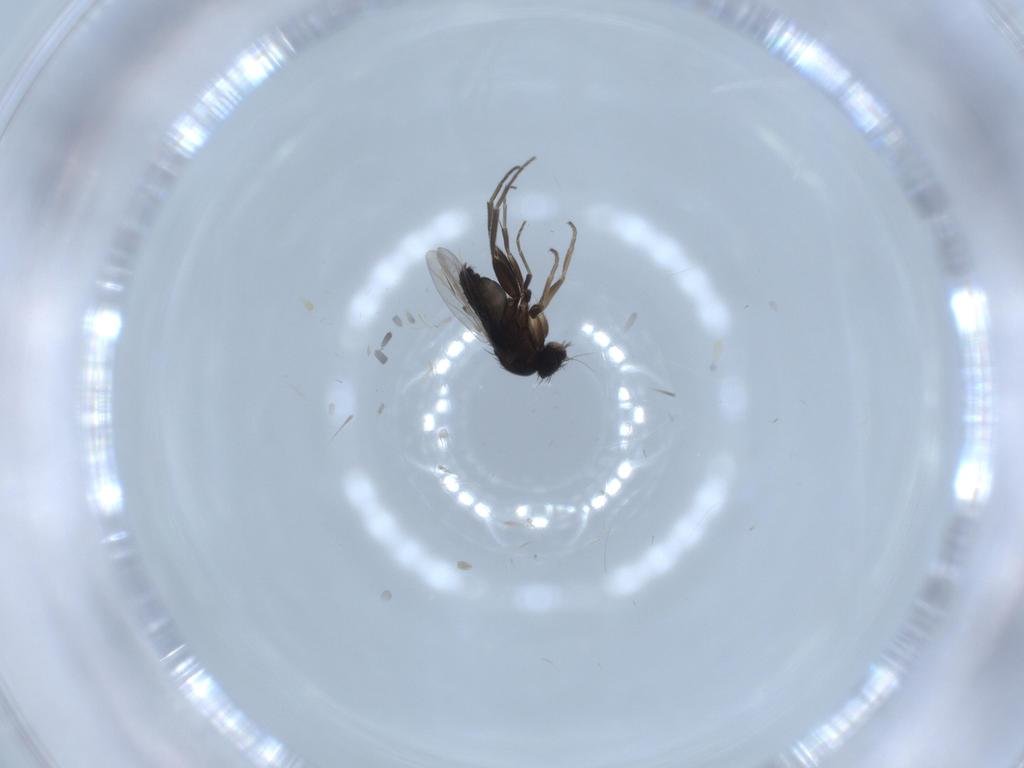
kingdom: Animalia
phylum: Arthropoda
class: Insecta
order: Diptera
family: Phoridae
